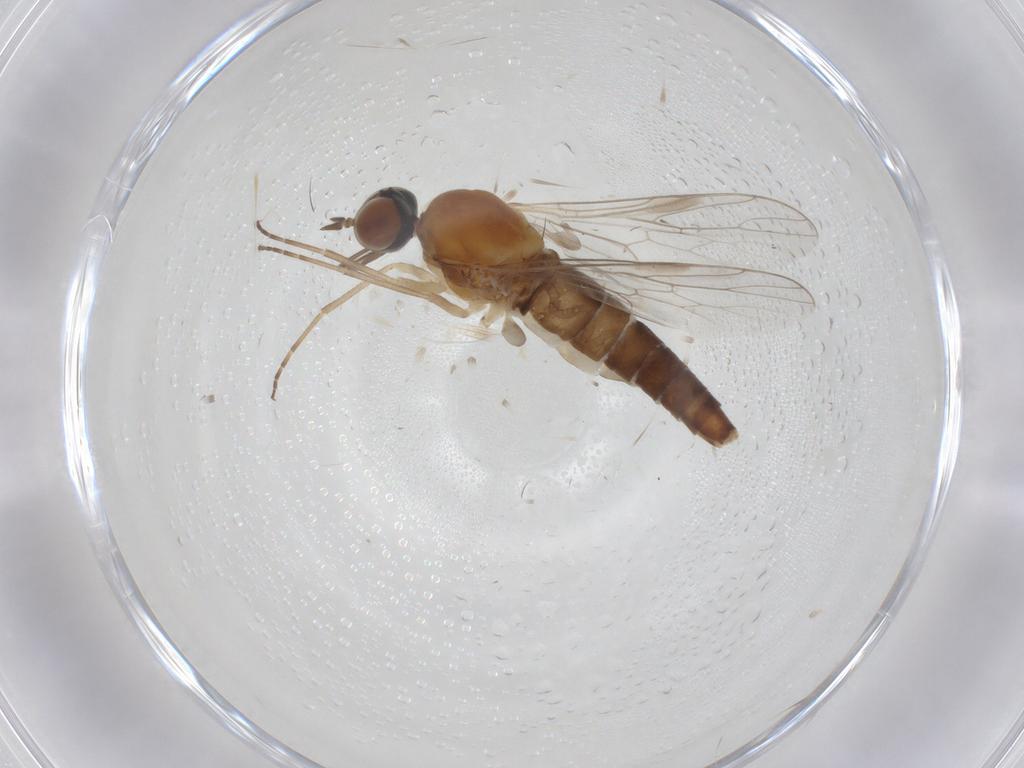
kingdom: Animalia
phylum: Arthropoda
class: Insecta
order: Diptera
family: Scenopinidae
